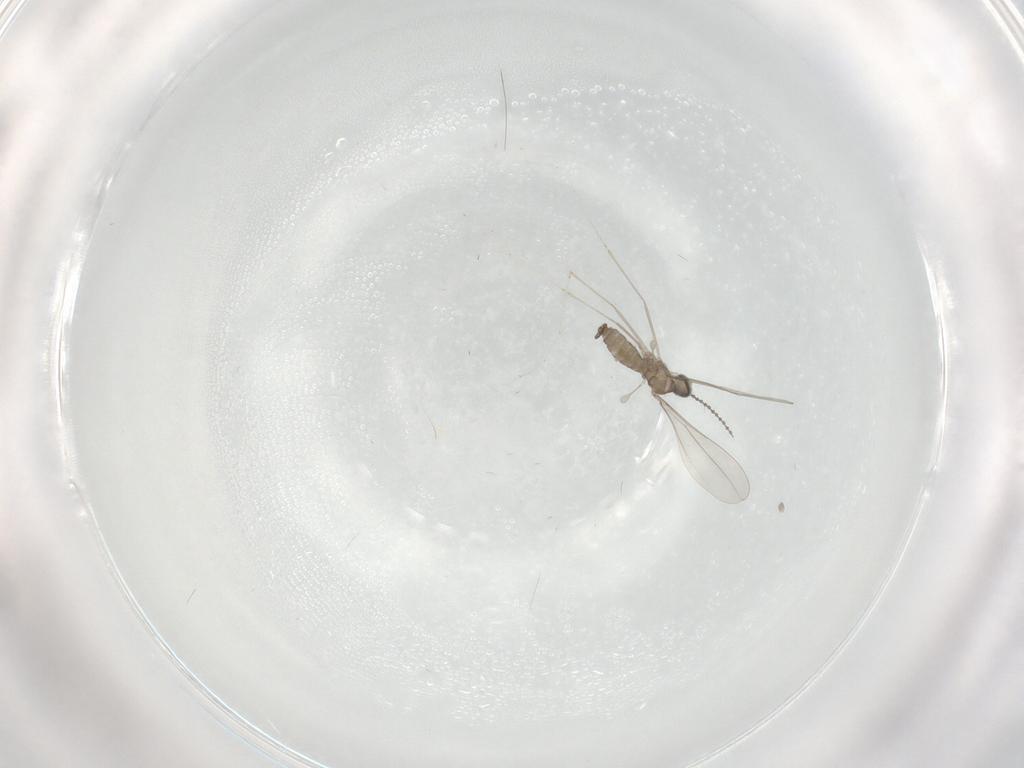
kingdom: Animalia
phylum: Arthropoda
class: Insecta
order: Diptera
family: Cecidomyiidae
